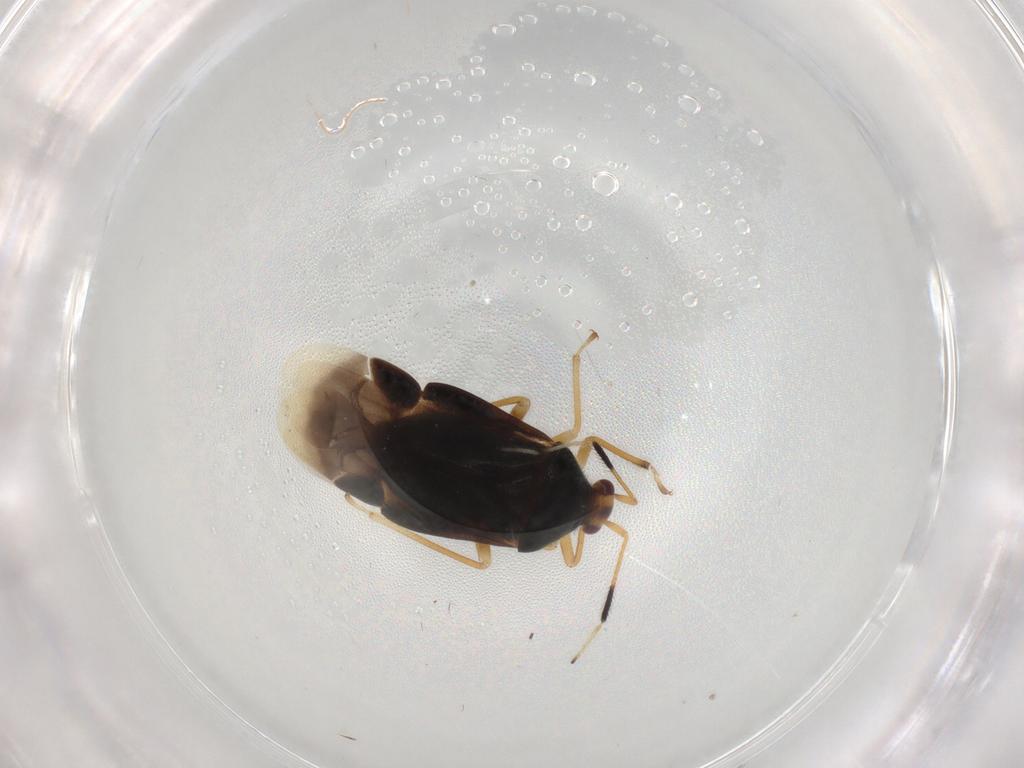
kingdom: Animalia
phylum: Arthropoda
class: Insecta
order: Hemiptera
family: Miridae
